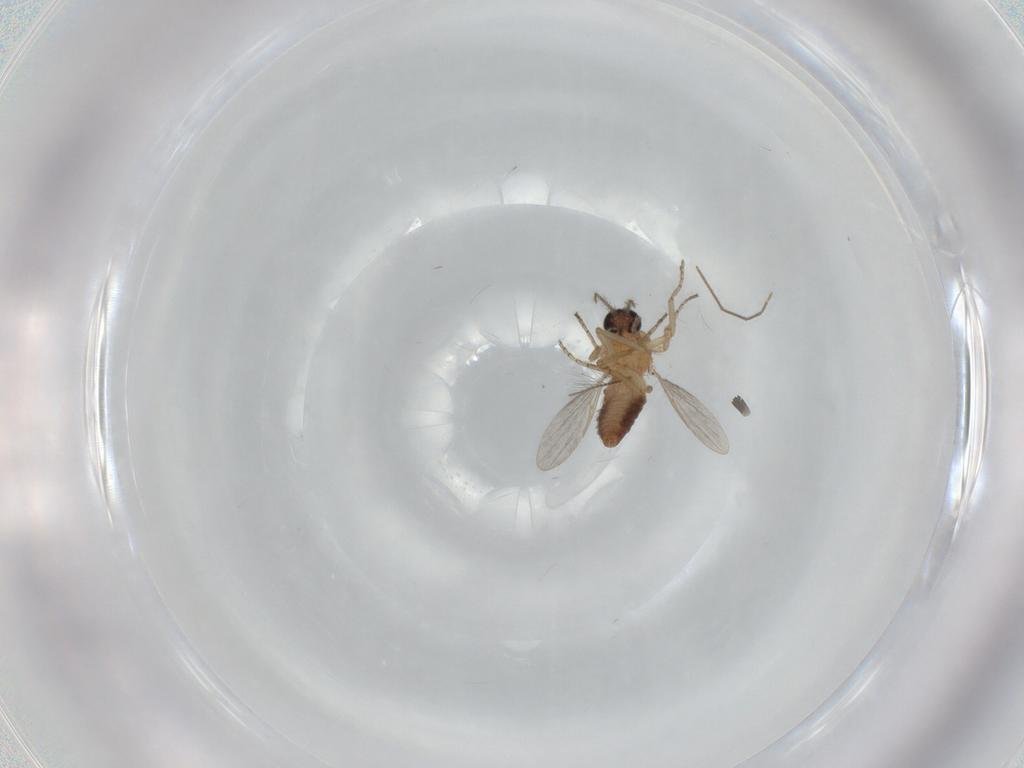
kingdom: Animalia
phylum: Arthropoda
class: Insecta
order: Diptera
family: Ceratopogonidae
